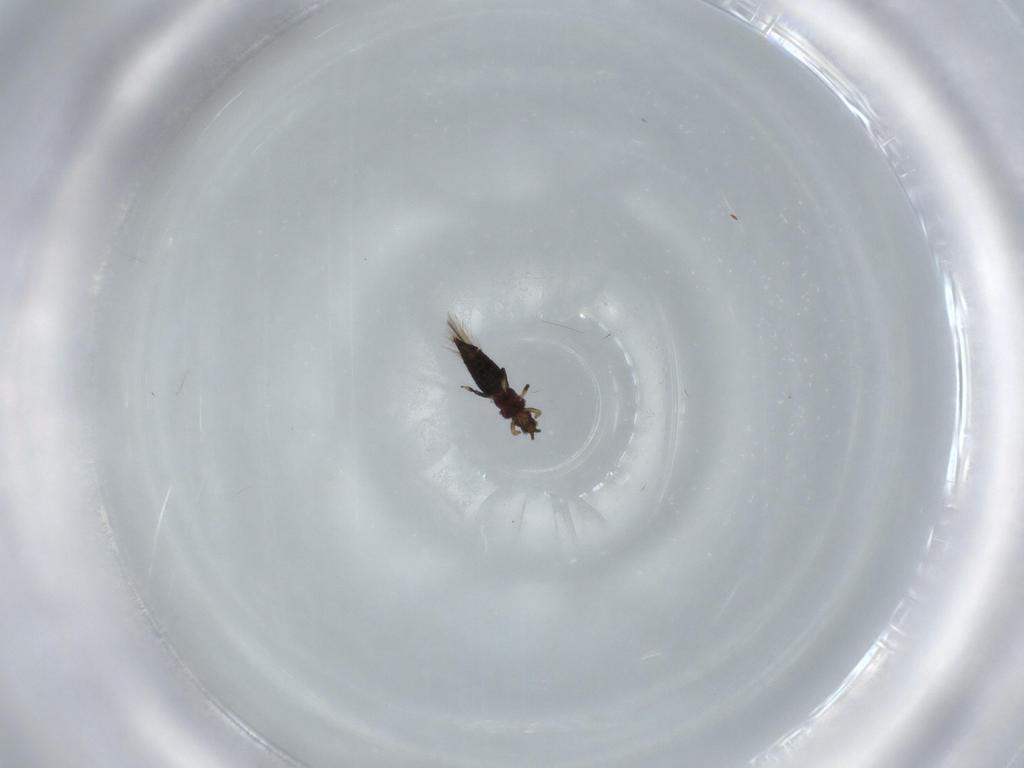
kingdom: Animalia
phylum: Arthropoda
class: Insecta
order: Thysanoptera
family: Thripidae
